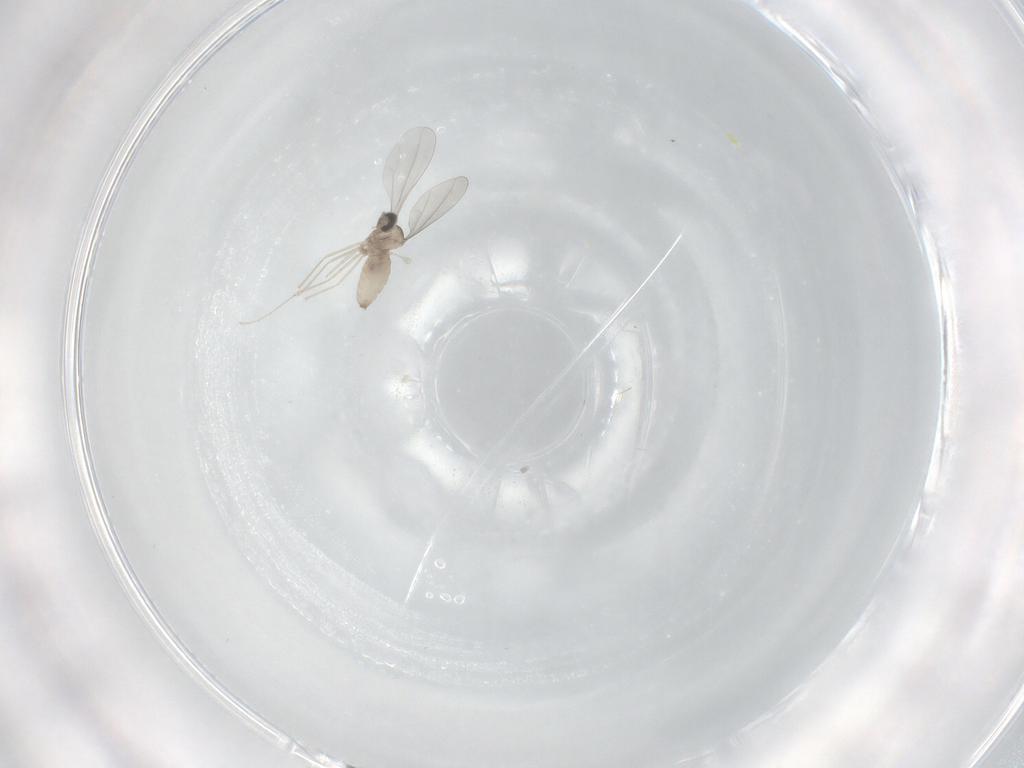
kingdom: Animalia
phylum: Arthropoda
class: Insecta
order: Diptera
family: Cecidomyiidae
